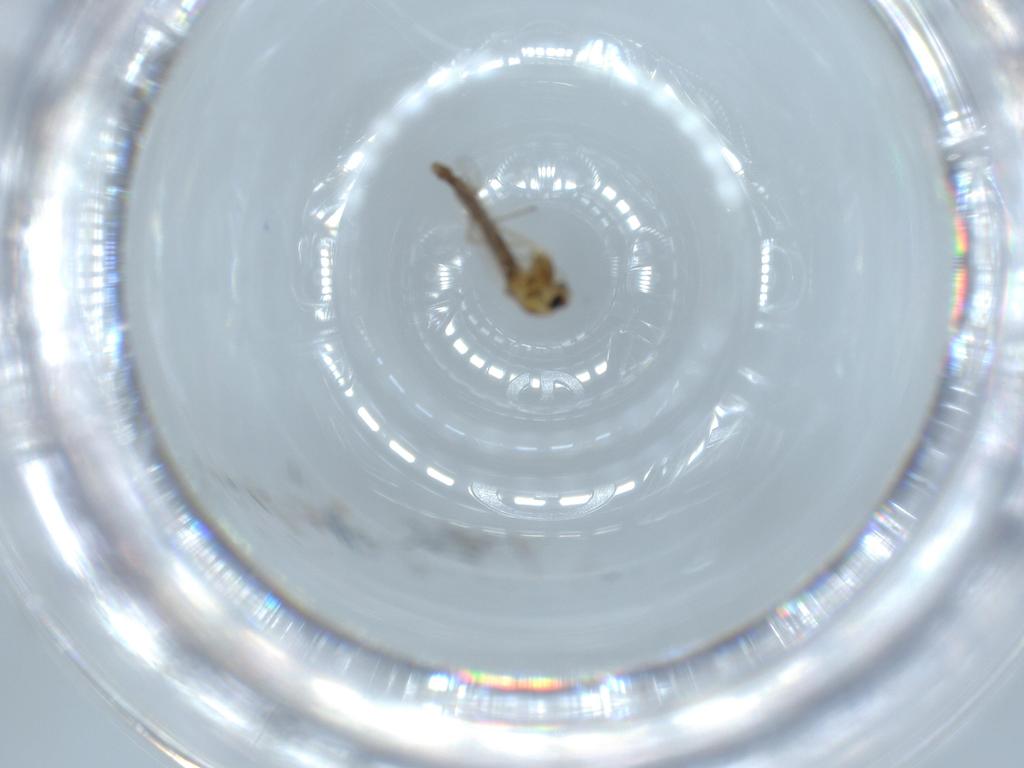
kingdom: Animalia
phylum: Arthropoda
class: Insecta
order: Diptera
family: Chironomidae
